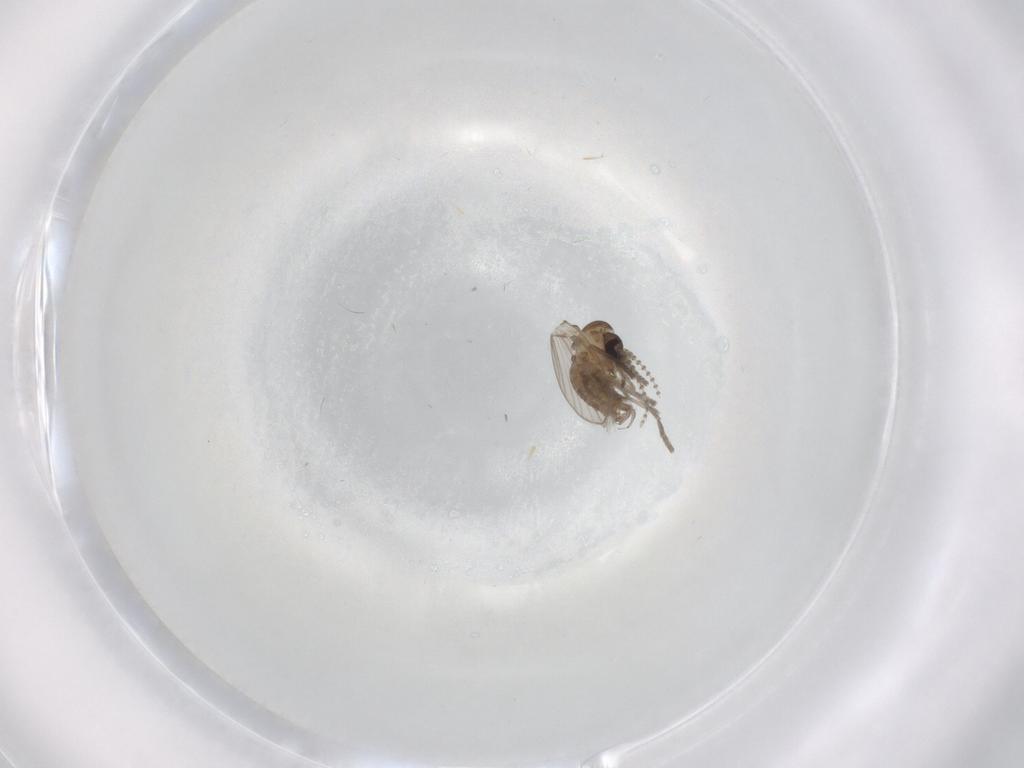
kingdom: Animalia
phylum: Arthropoda
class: Insecta
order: Diptera
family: Psychodidae
